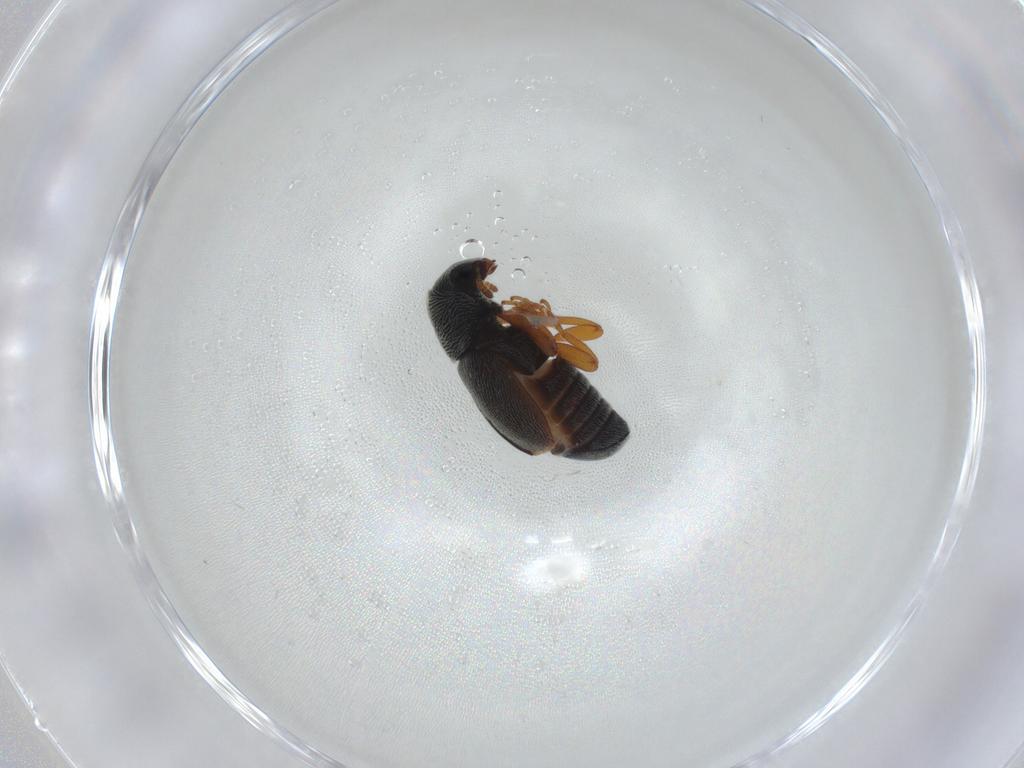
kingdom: Animalia
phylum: Arthropoda
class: Insecta
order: Coleoptera
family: Anthribidae
